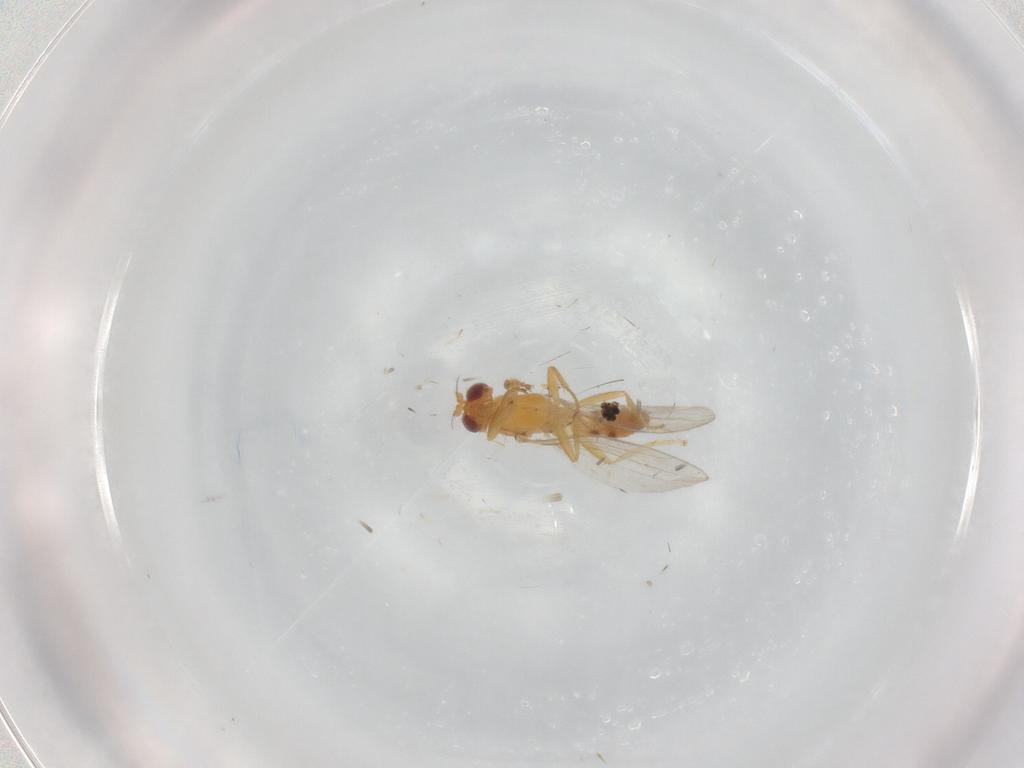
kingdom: Animalia
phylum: Arthropoda
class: Insecta
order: Diptera
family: Periscelididae
